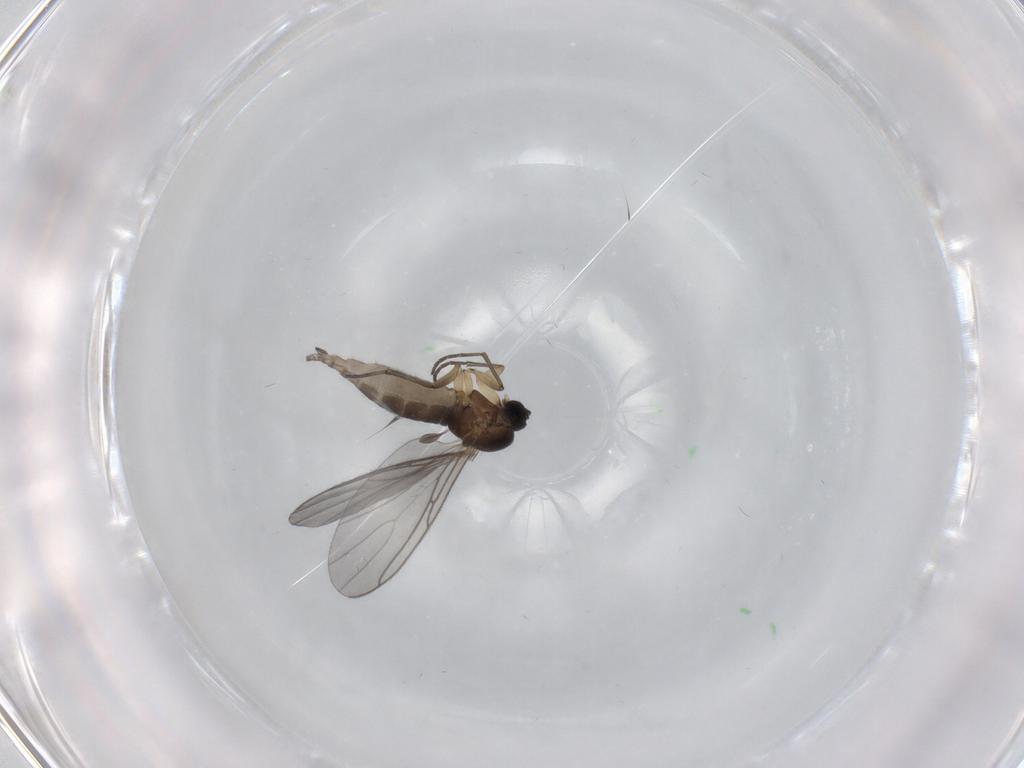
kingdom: Animalia
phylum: Arthropoda
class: Insecta
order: Diptera
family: Sciaridae
